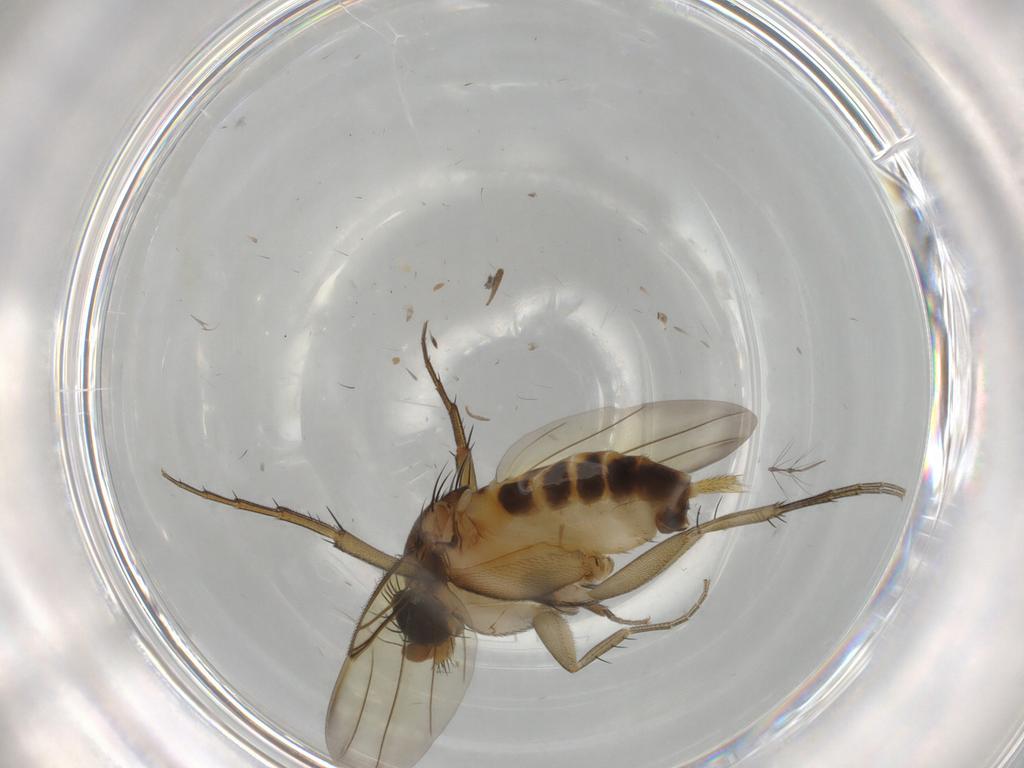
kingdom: Animalia
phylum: Arthropoda
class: Insecta
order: Diptera
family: Phoridae
